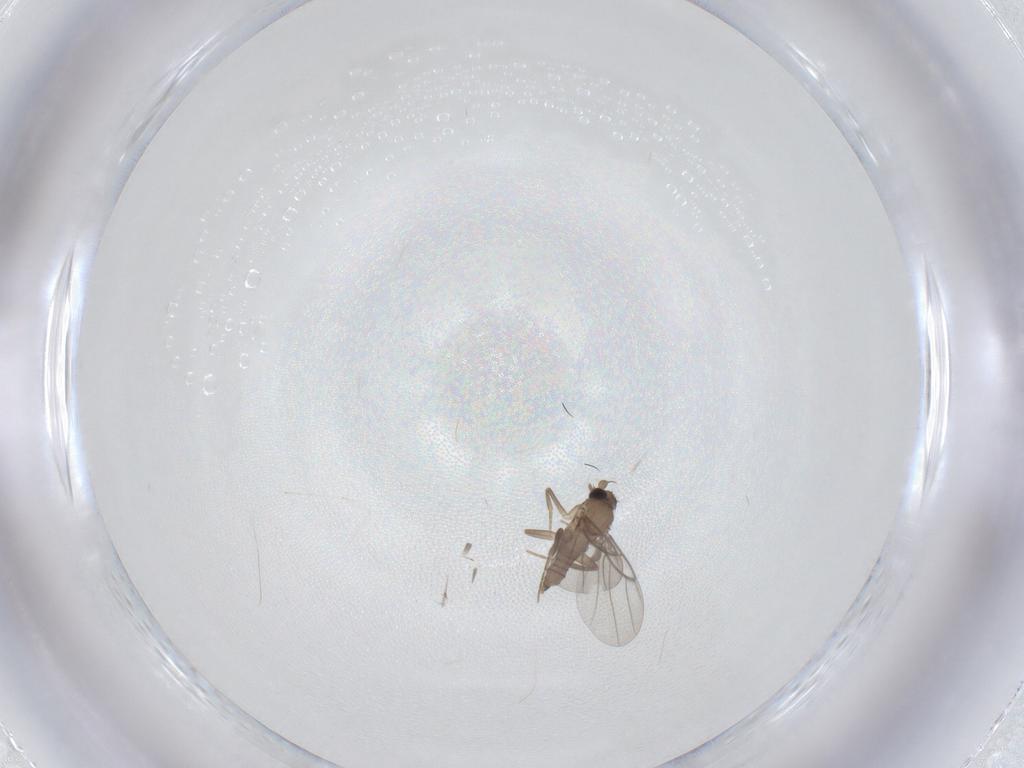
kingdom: Animalia
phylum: Arthropoda
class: Insecta
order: Diptera
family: Cecidomyiidae
